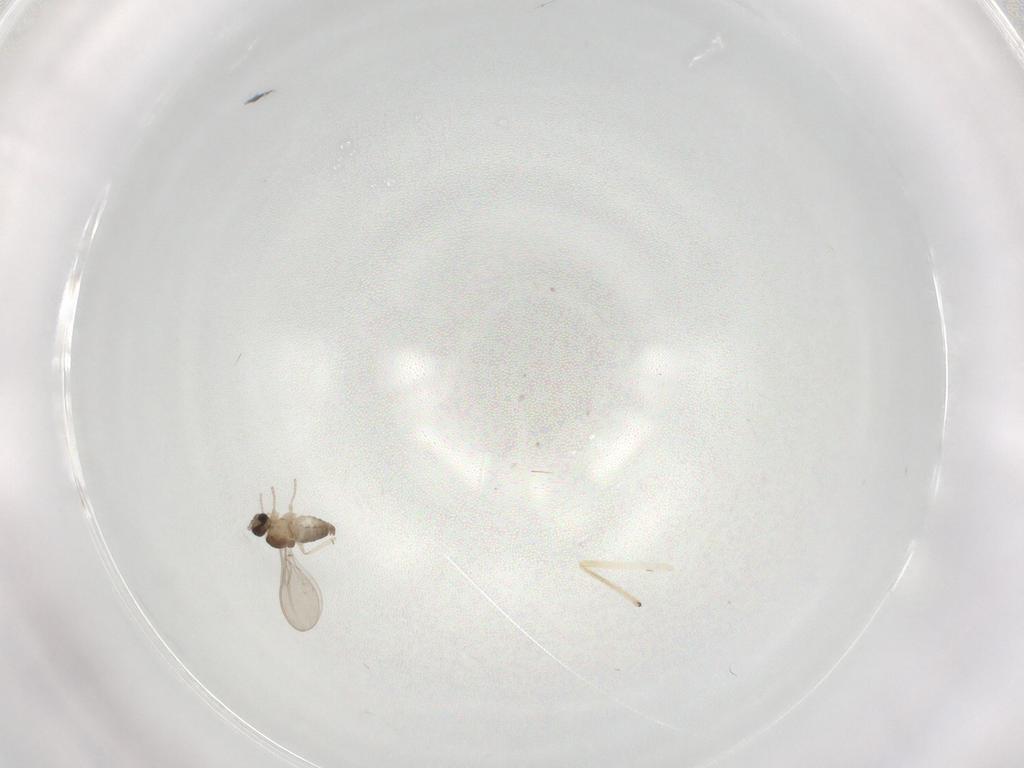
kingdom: Animalia
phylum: Arthropoda
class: Insecta
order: Diptera
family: Cecidomyiidae
